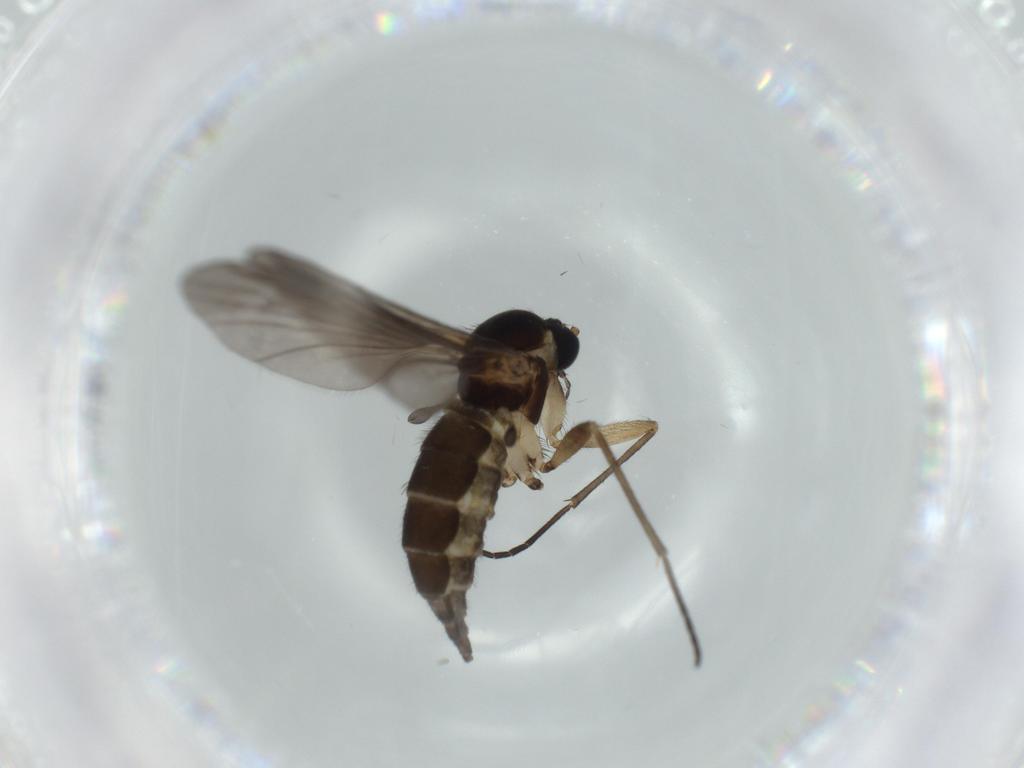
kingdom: Animalia
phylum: Arthropoda
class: Insecta
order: Diptera
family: Sciaridae
